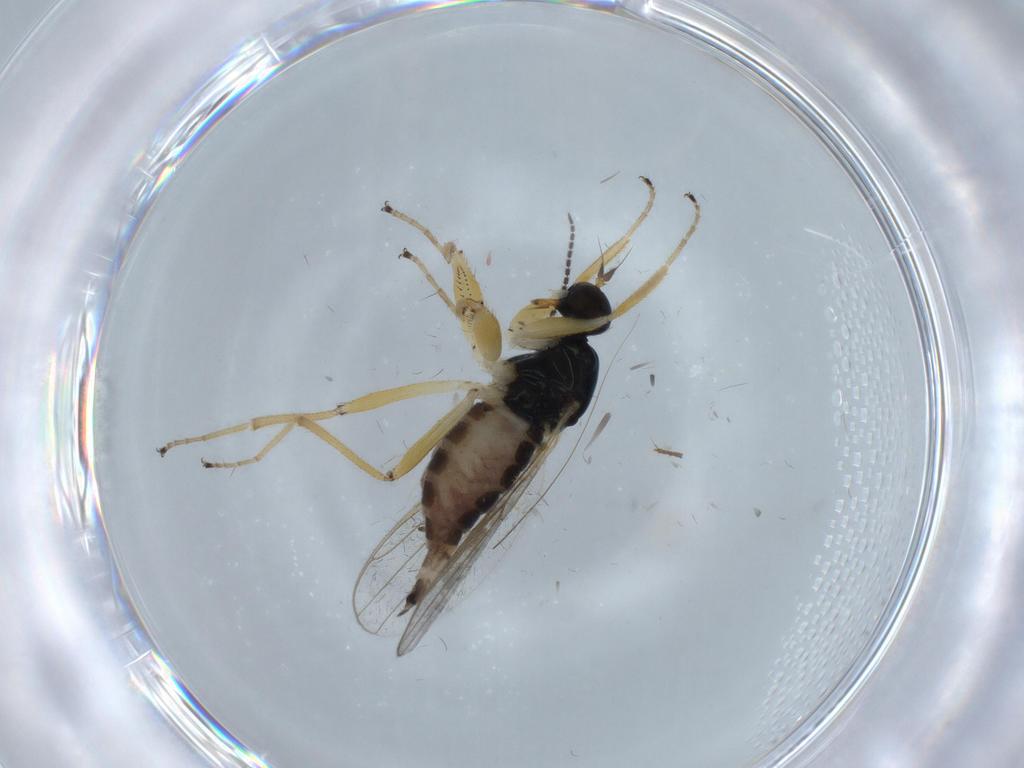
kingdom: Animalia
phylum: Arthropoda
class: Insecta
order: Diptera
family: Hybotidae
